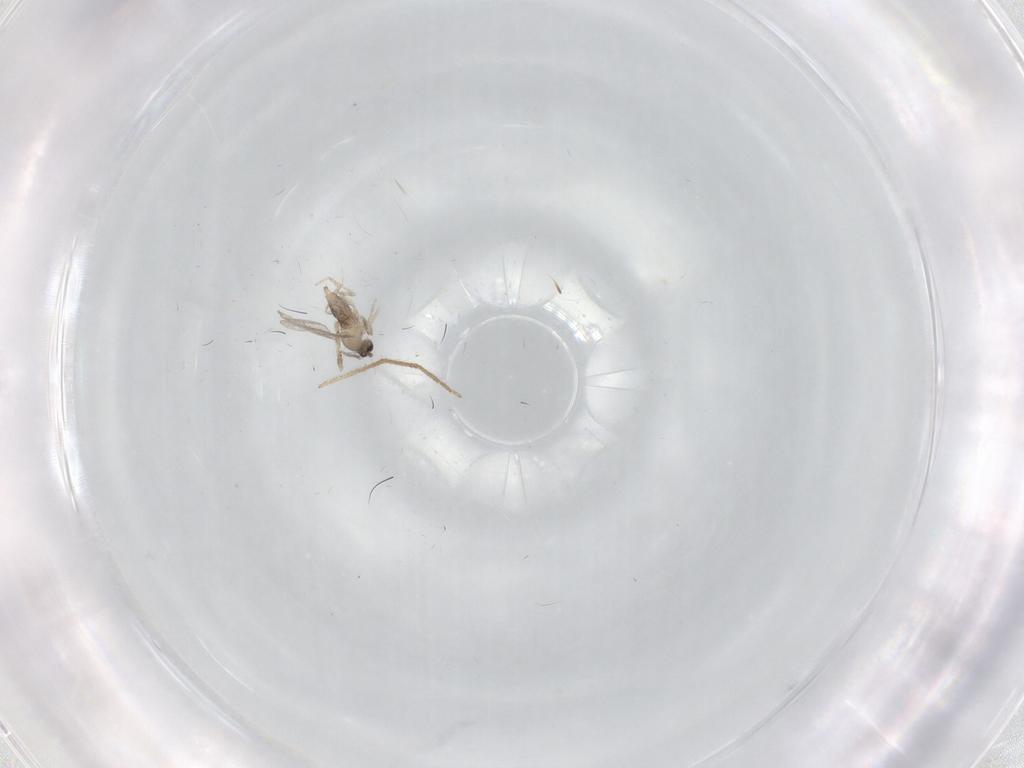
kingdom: Animalia
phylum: Arthropoda
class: Insecta
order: Diptera
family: Cecidomyiidae
